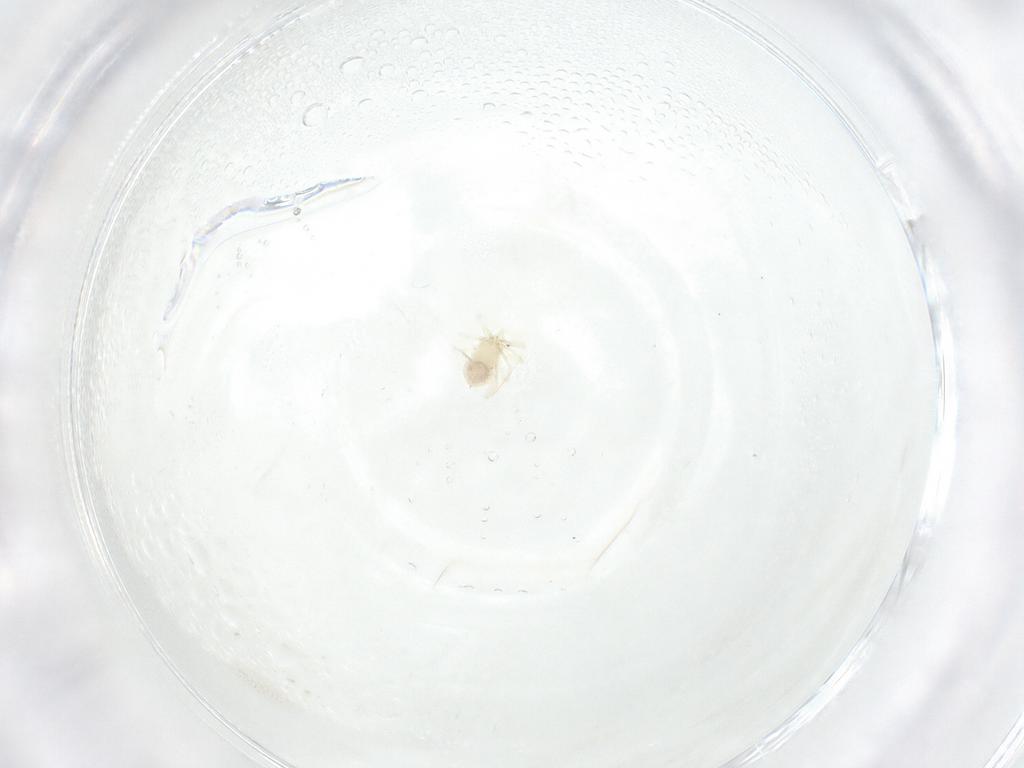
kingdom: Animalia
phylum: Arthropoda
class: Arachnida
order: Trombidiformes
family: Anystidae
